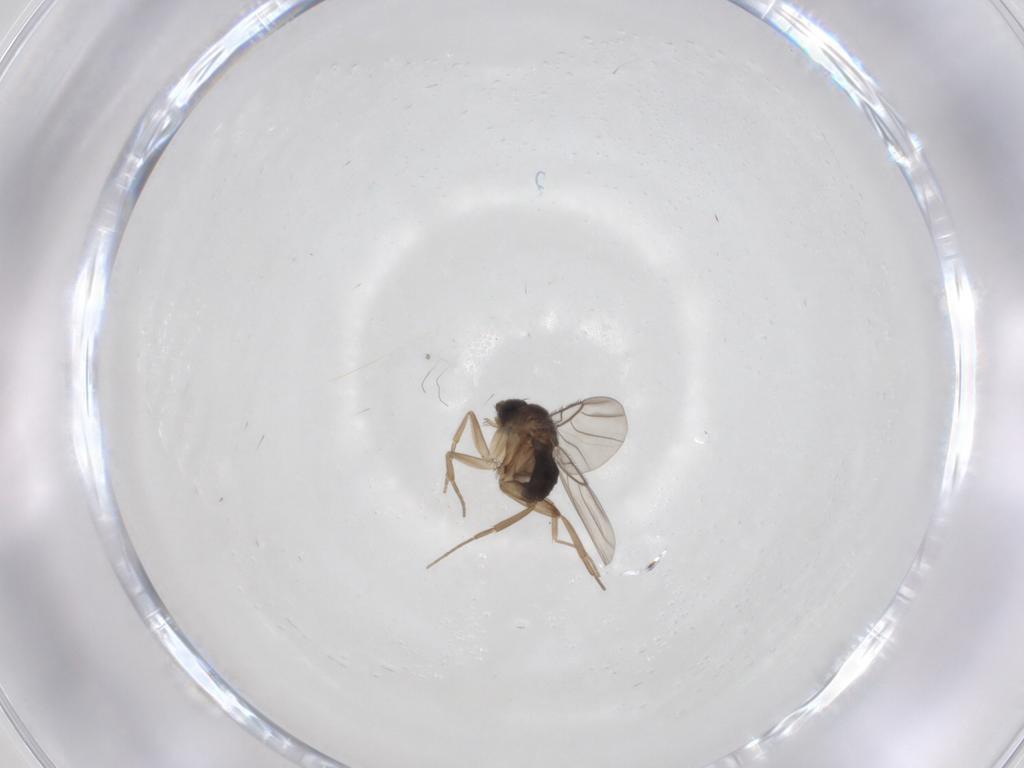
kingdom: Animalia
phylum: Arthropoda
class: Insecta
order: Diptera
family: Phoridae
